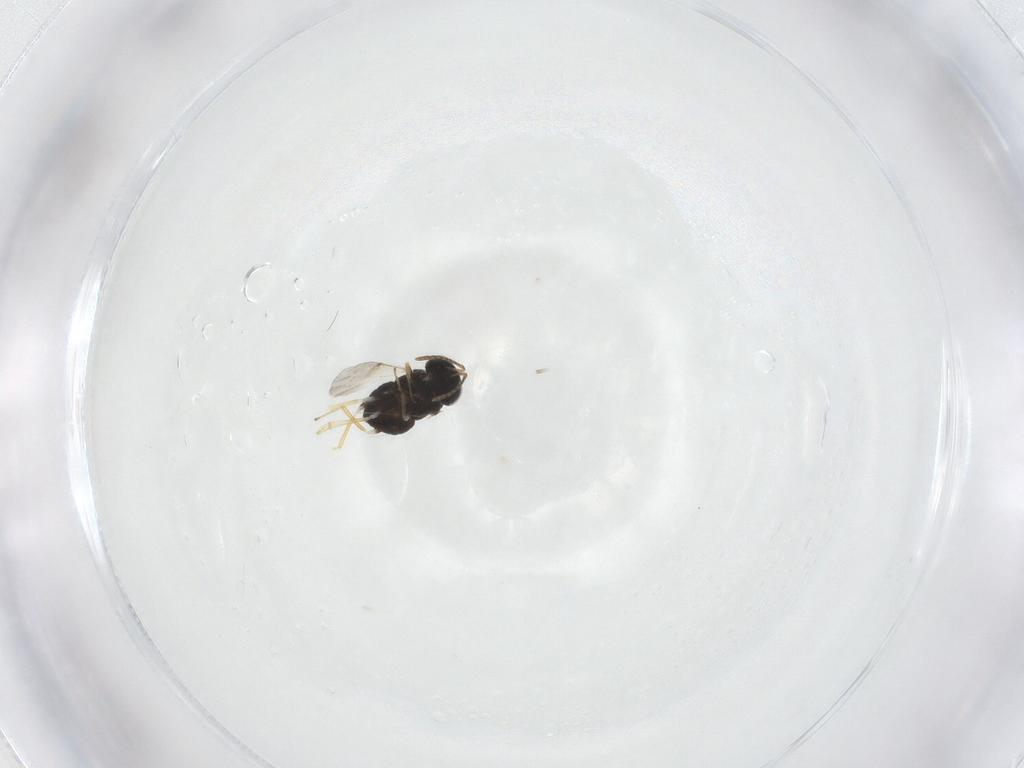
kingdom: Animalia
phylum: Arthropoda
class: Insecta
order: Hymenoptera
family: Encyrtidae
